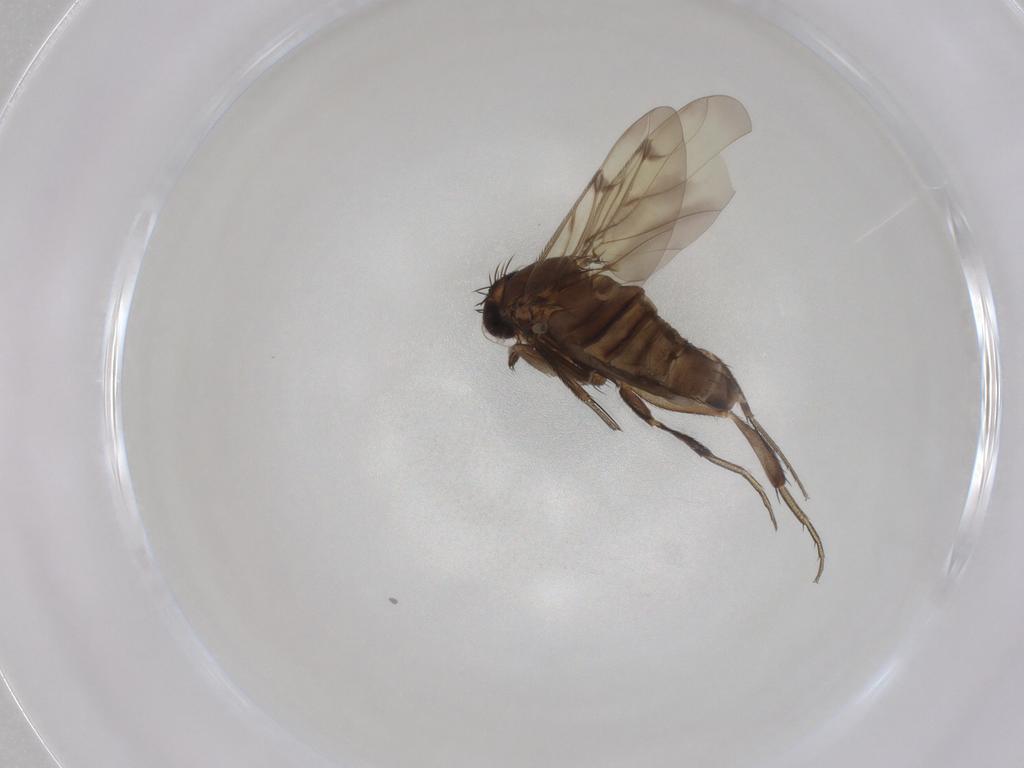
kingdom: Animalia
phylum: Arthropoda
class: Insecta
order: Diptera
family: Phoridae
